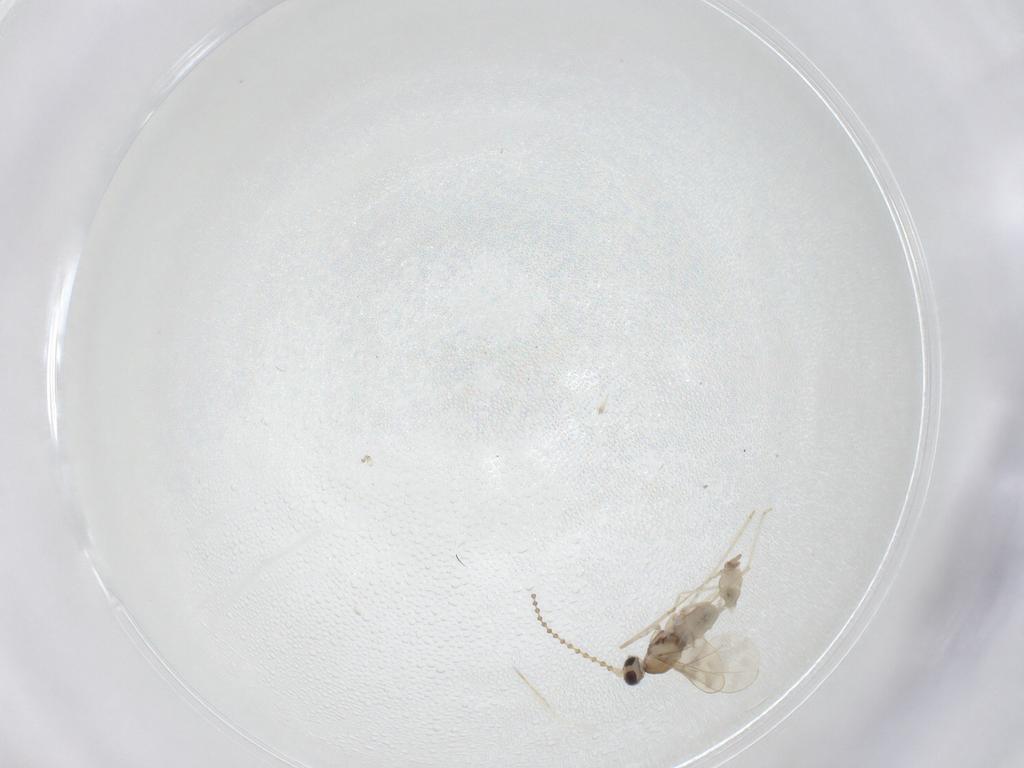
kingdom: Animalia
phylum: Arthropoda
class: Insecta
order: Diptera
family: Cecidomyiidae
